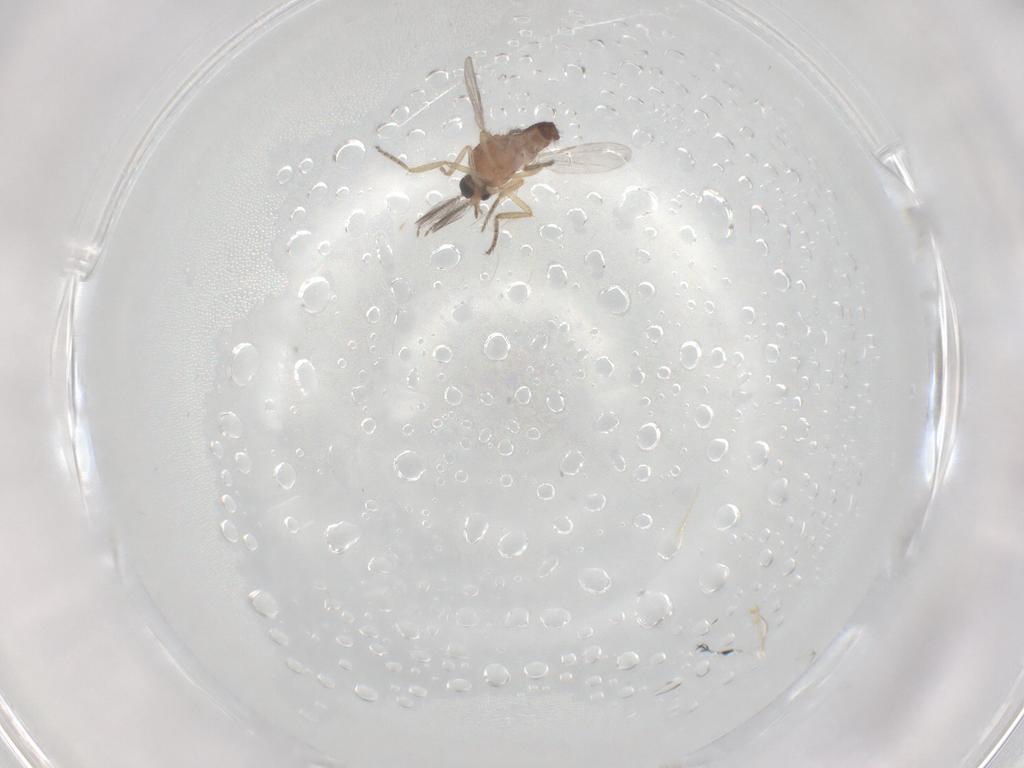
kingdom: Animalia
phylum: Arthropoda
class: Insecta
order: Diptera
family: Ceratopogonidae
